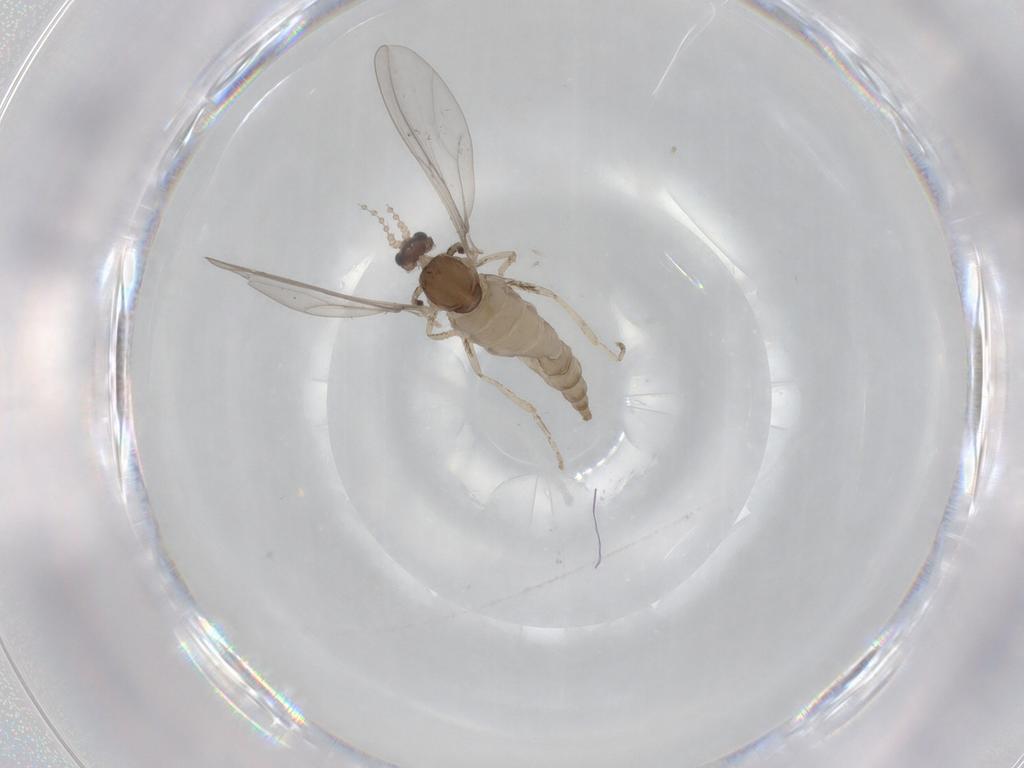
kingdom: Animalia
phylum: Arthropoda
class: Insecta
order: Diptera
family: Cecidomyiidae
